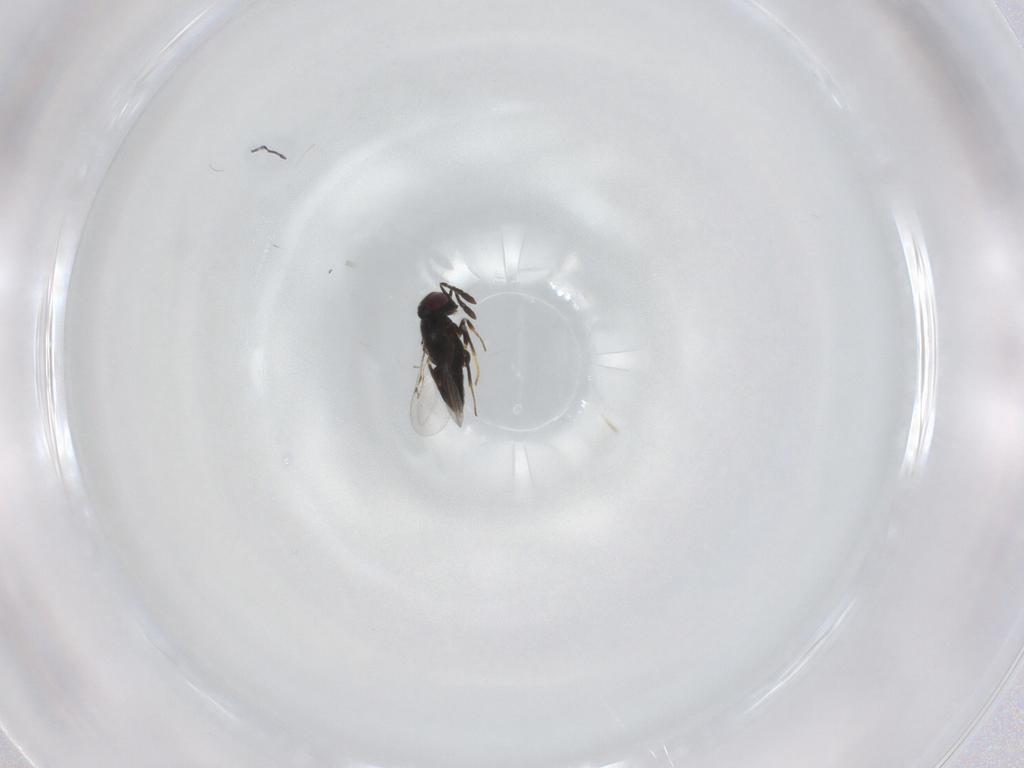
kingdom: Animalia
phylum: Arthropoda
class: Insecta
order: Hymenoptera
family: Encyrtidae
